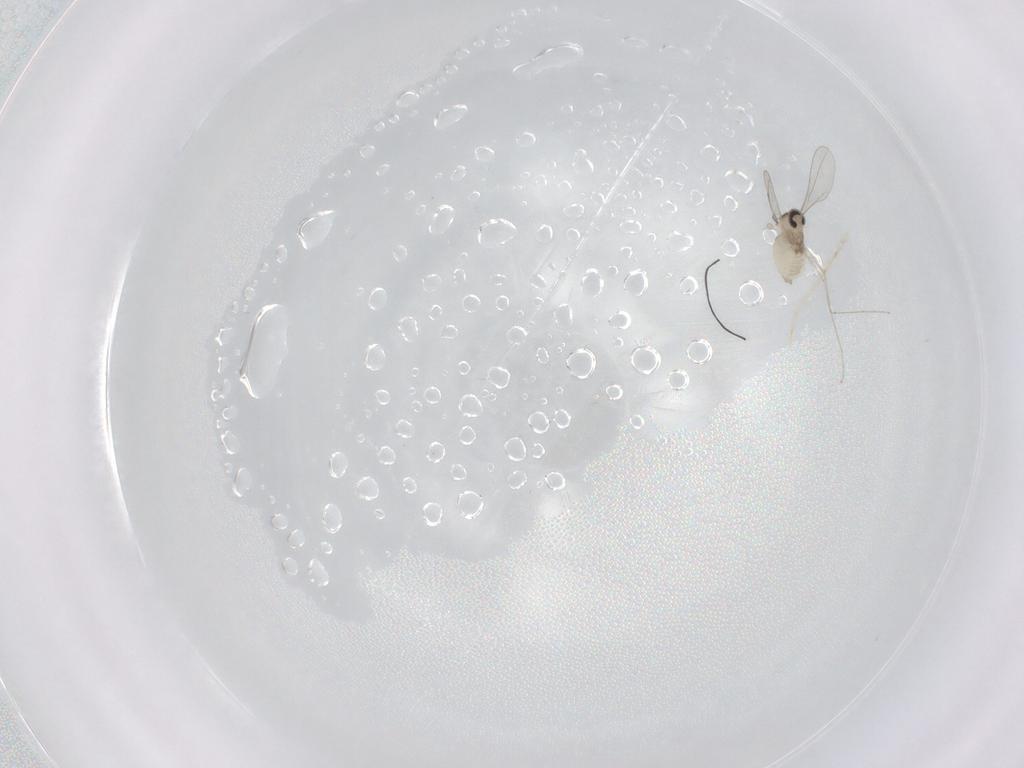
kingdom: Animalia
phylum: Arthropoda
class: Insecta
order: Diptera
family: Cecidomyiidae
